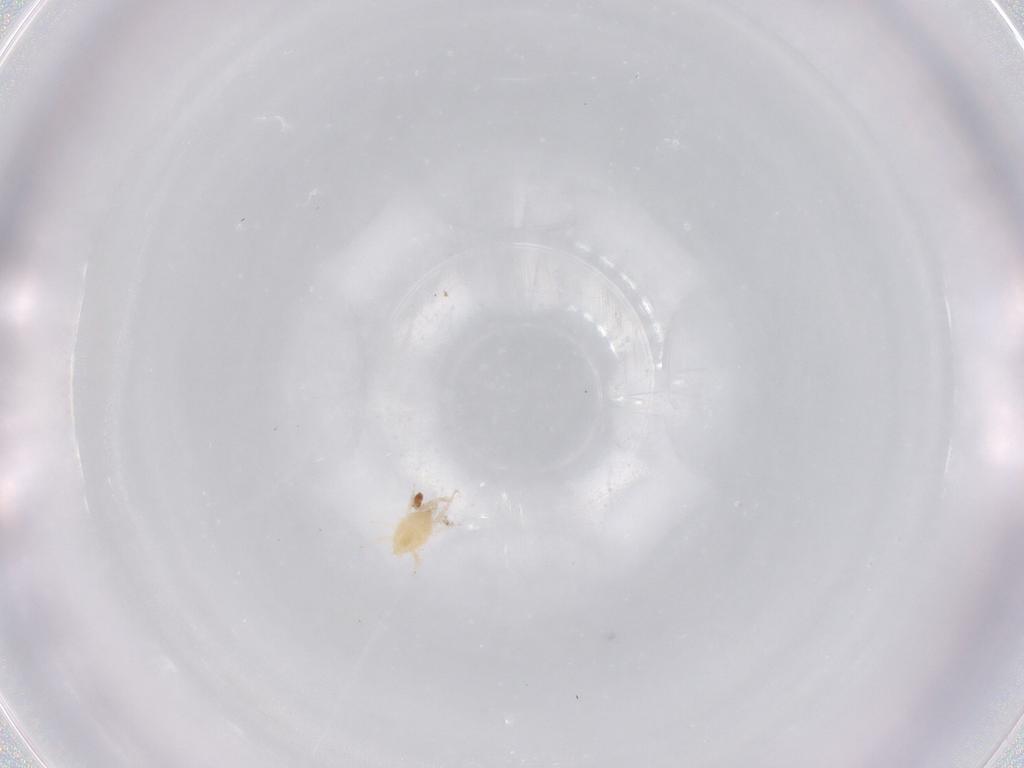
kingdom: Animalia
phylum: Arthropoda
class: Arachnida
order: Trombidiformes
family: Stigmaeidae
